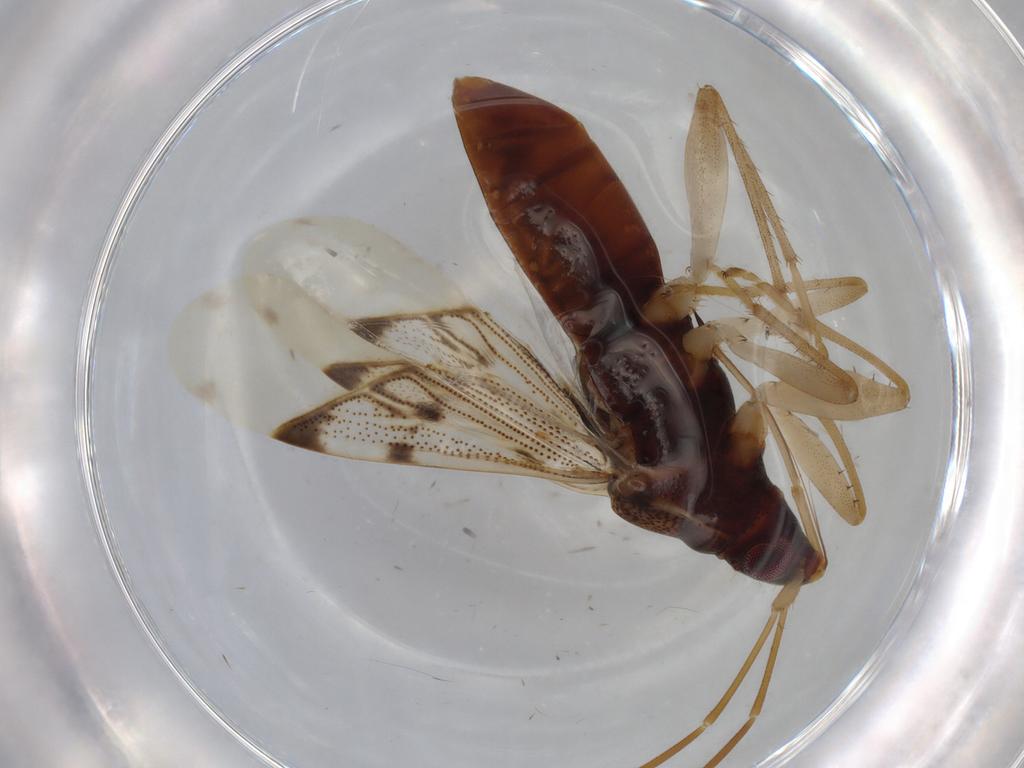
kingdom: Animalia
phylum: Arthropoda
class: Insecta
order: Hemiptera
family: Rhyparochromidae
